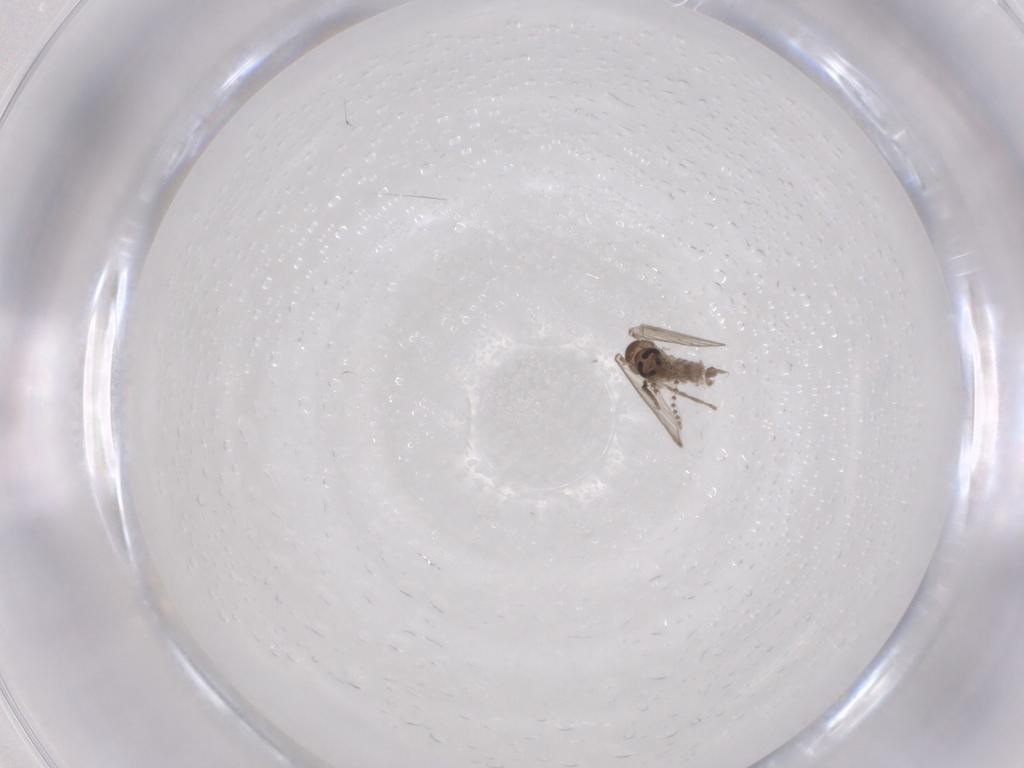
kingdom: Animalia
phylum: Arthropoda
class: Insecta
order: Diptera
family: Psychodidae
